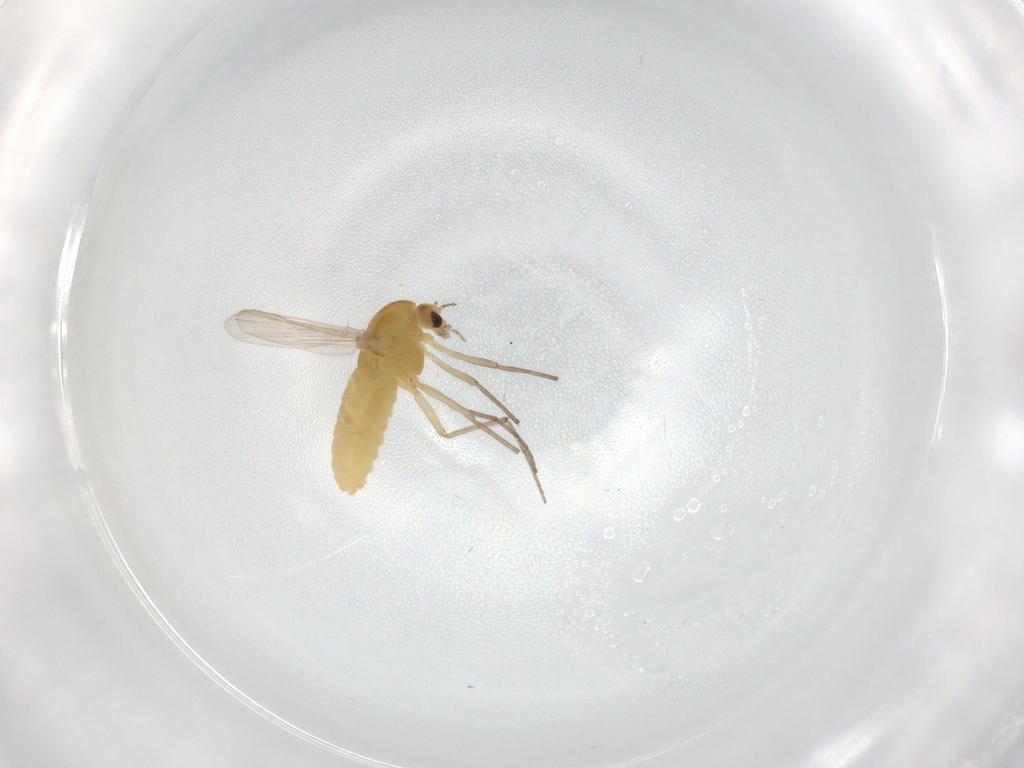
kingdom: Animalia
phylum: Arthropoda
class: Insecta
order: Diptera
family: Chironomidae
